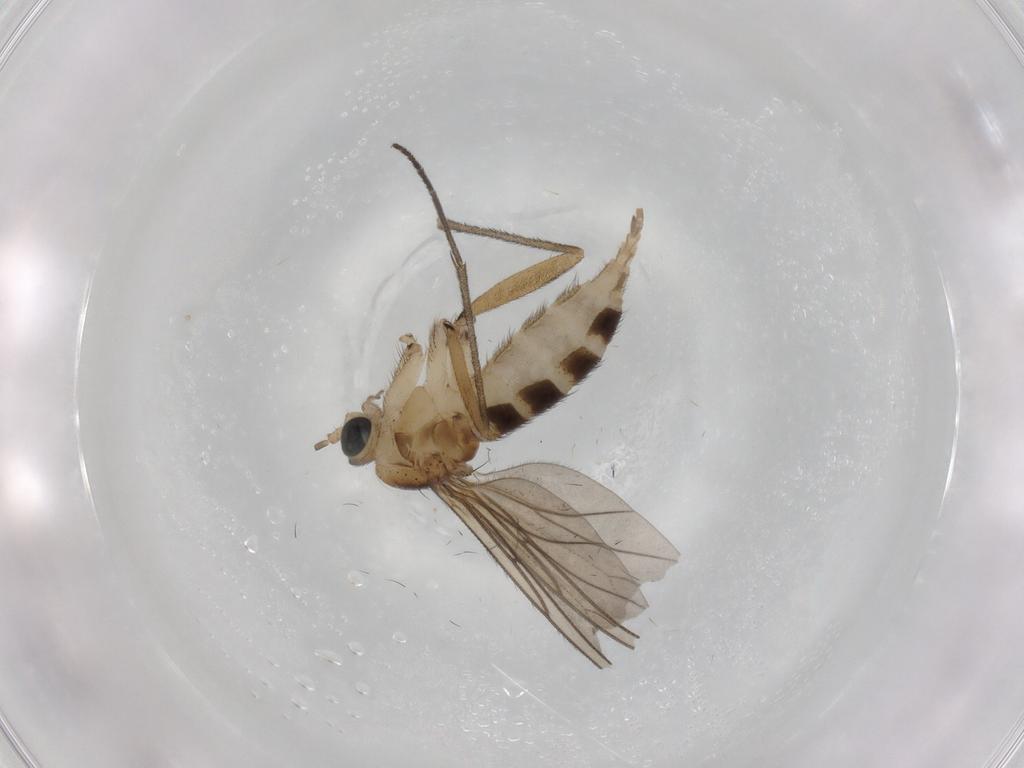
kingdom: Animalia
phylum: Arthropoda
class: Insecta
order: Diptera
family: Sciaridae
